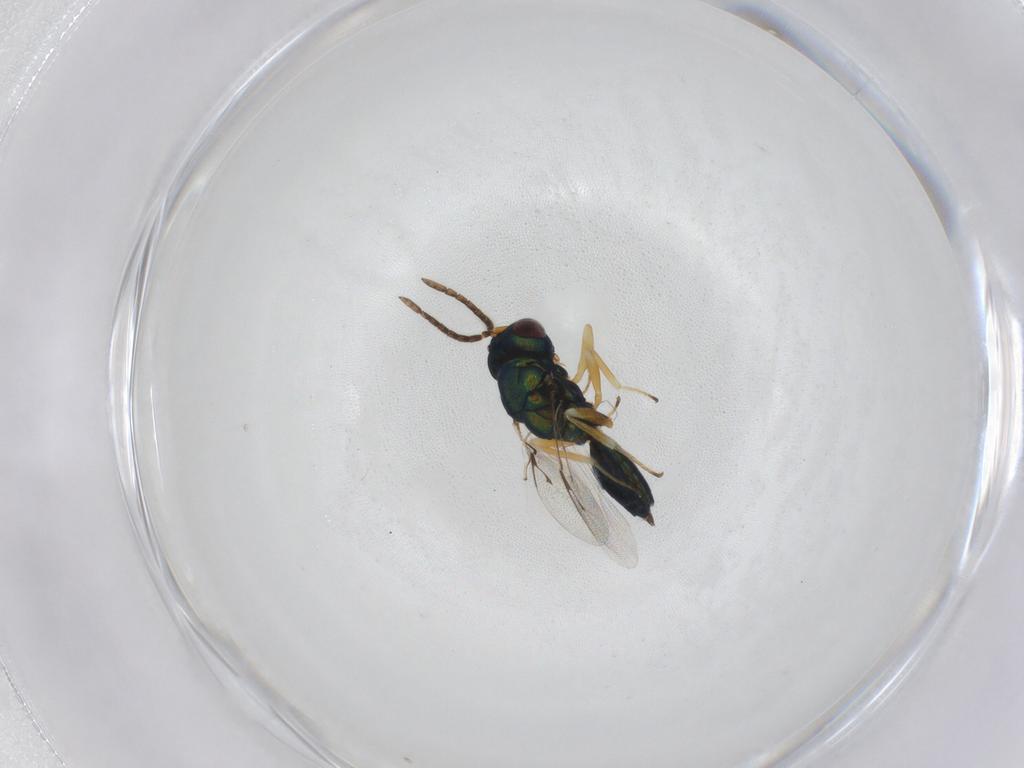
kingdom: Animalia
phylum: Arthropoda
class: Insecta
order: Hymenoptera
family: Pteromalidae
